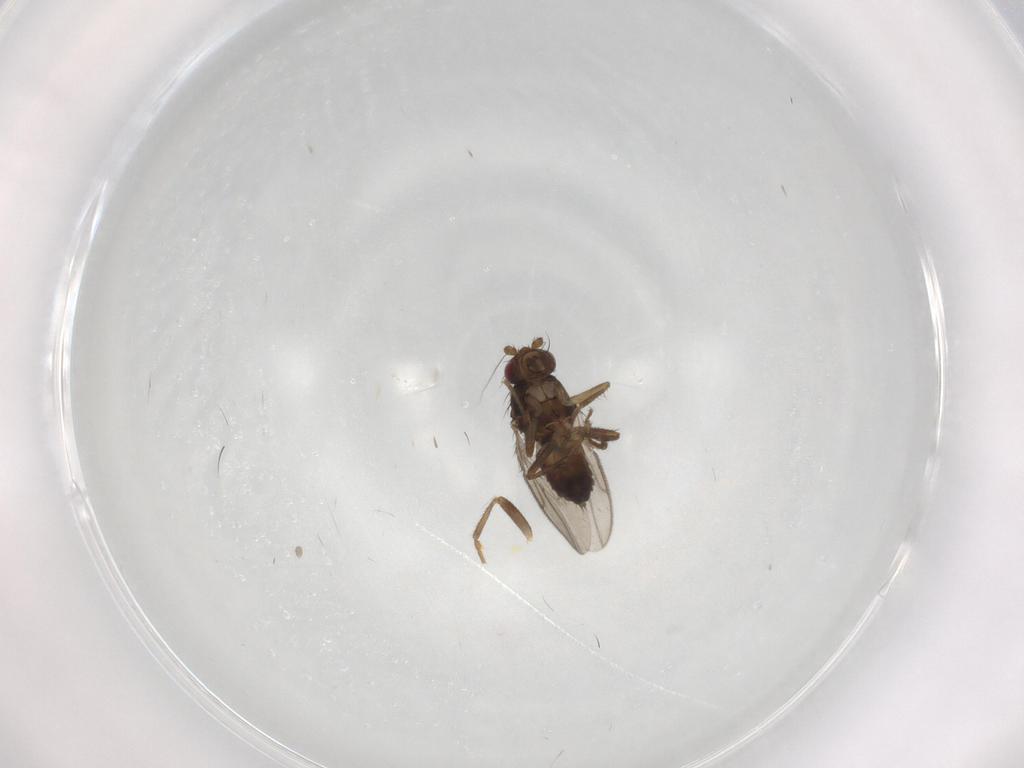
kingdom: Animalia
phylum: Arthropoda
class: Insecta
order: Diptera
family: Sphaeroceridae
